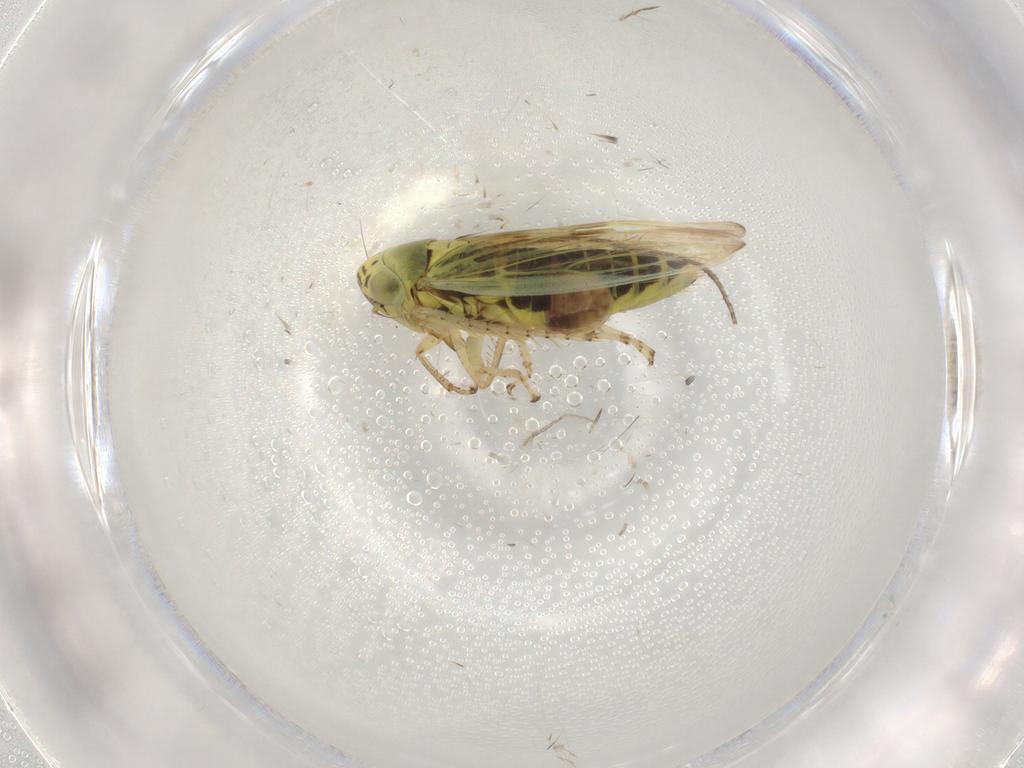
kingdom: Animalia
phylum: Arthropoda
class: Insecta
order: Hemiptera
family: Cicadellidae
